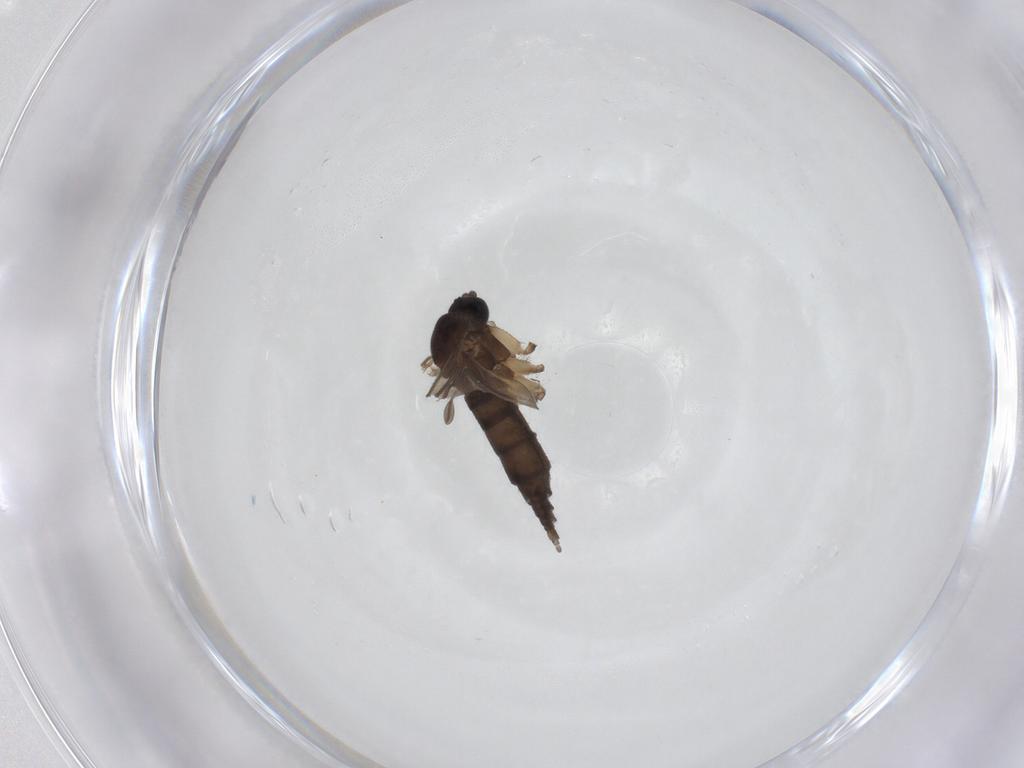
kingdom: Animalia
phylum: Arthropoda
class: Insecta
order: Diptera
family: Sciaridae
